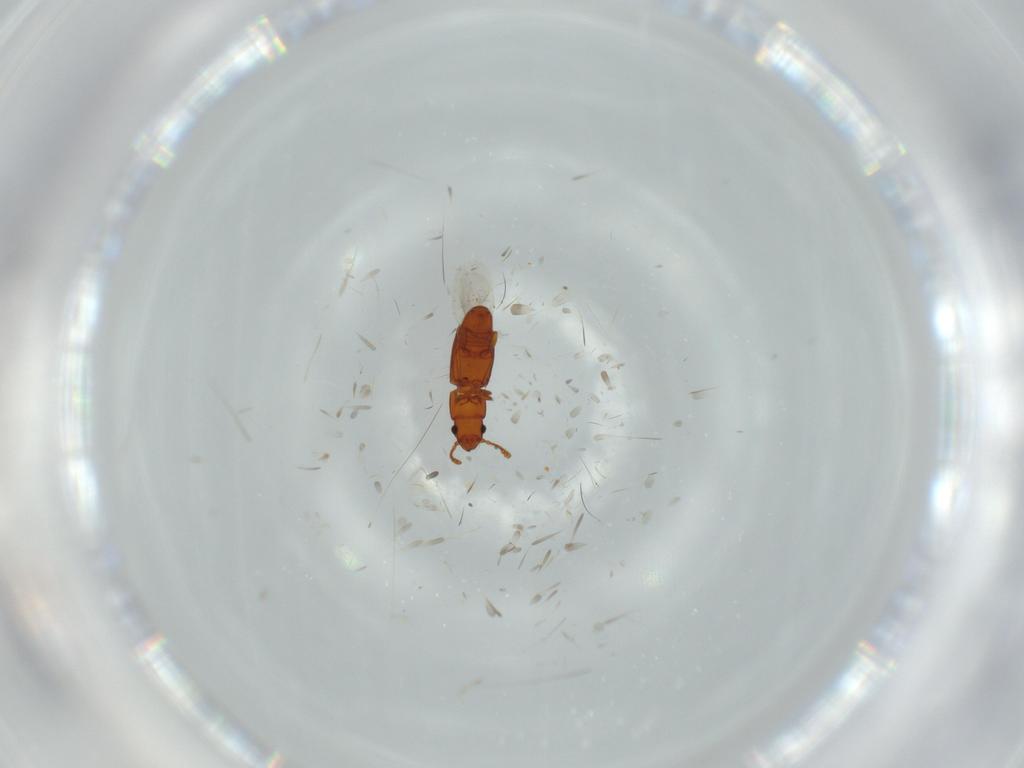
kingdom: Animalia
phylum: Arthropoda
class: Insecta
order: Coleoptera
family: Smicripidae
